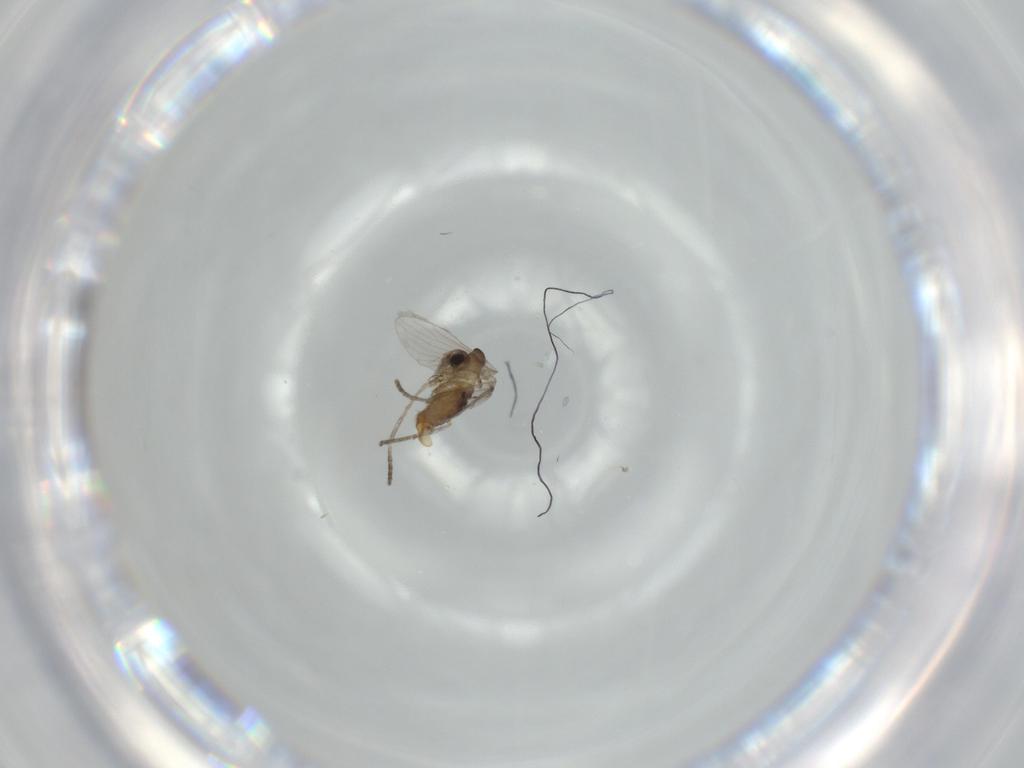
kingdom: Animalia
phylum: Arthropoda
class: Insecta
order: Diptera
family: Psychodidae
